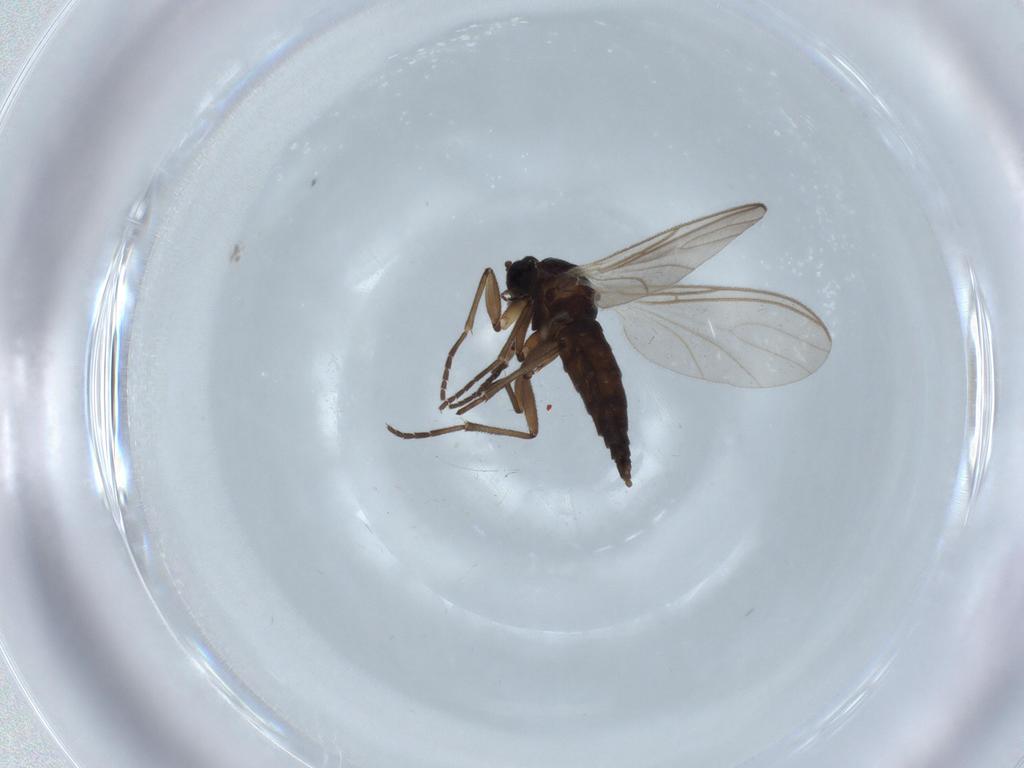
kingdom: Animalia
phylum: Arthropoda
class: Insecta
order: Diptera
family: Sciaridae
